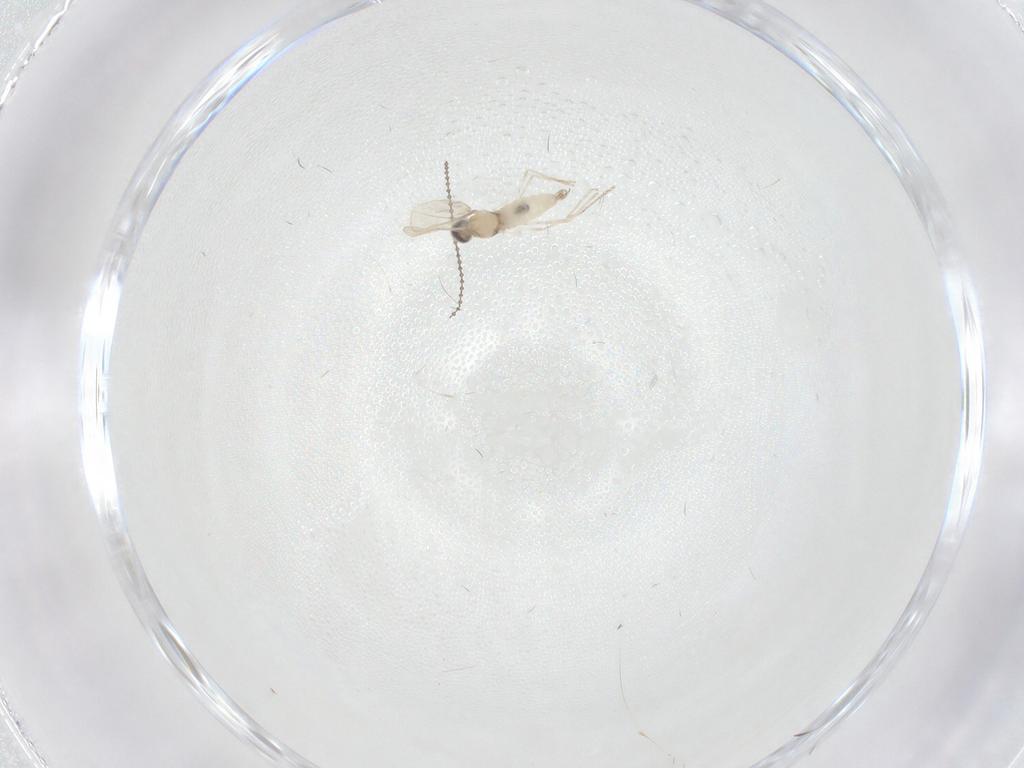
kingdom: Animalia
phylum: Arthropoda
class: Insecta
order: Diptera
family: Cecidomyiidae
